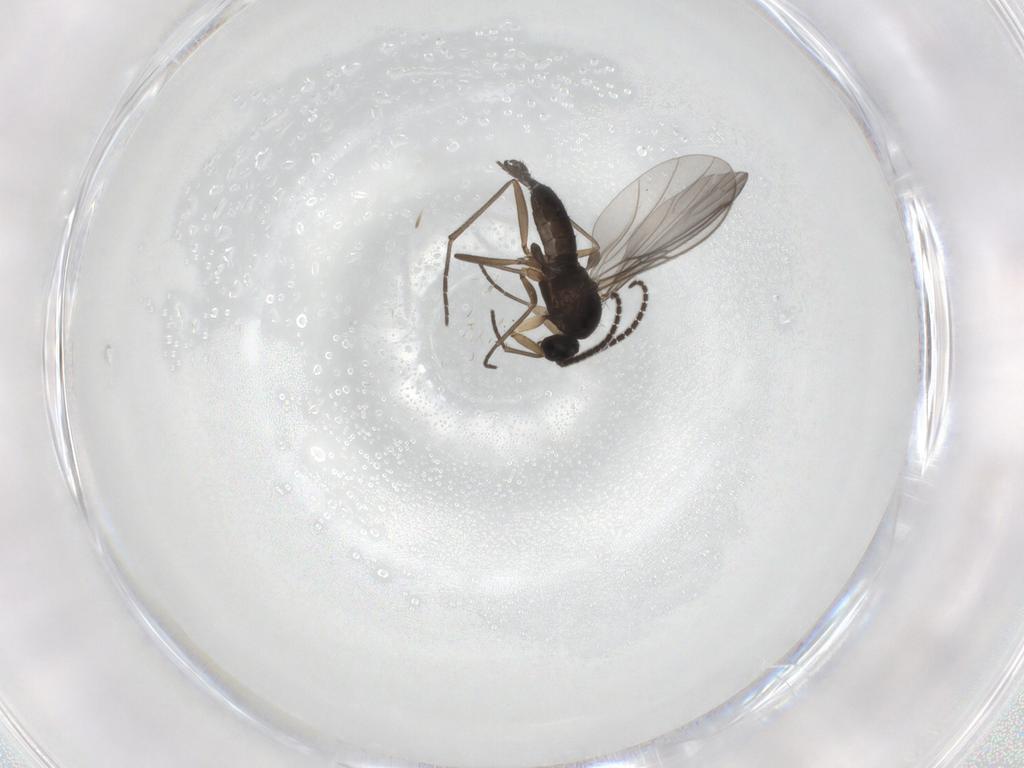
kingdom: Animalia
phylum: Arthropoda
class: Insecta
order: Diptera
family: Sciaridae
